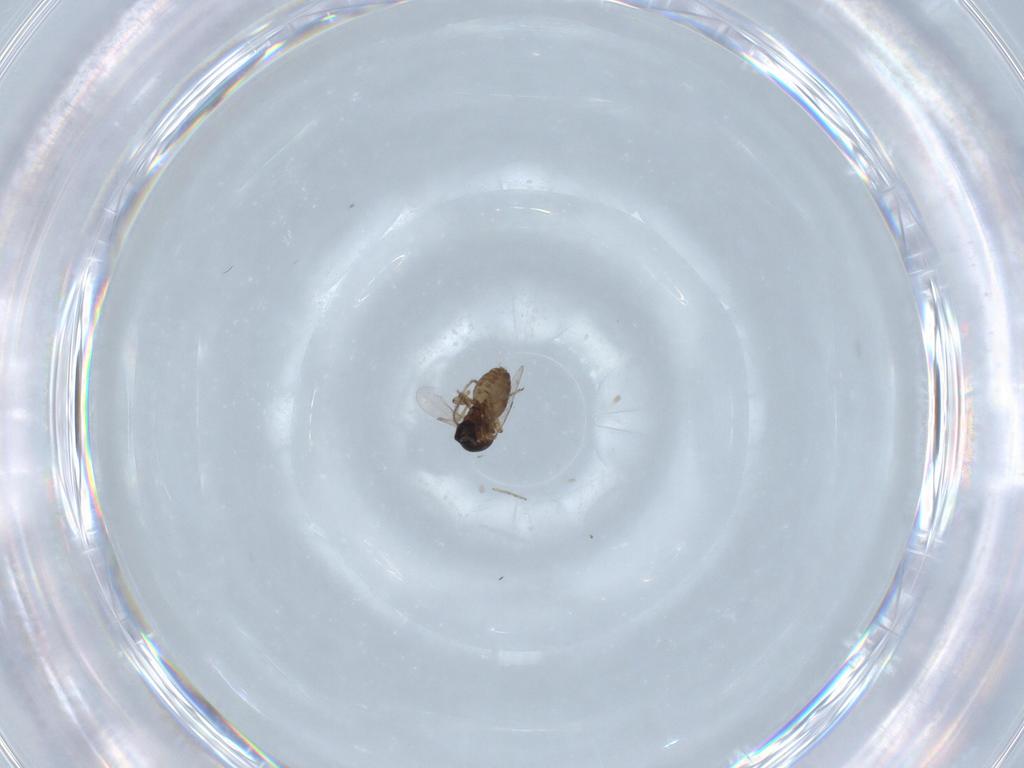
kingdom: Animalia
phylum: Arthropoda
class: Insecta
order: Diptera
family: Ceratopogonidae
